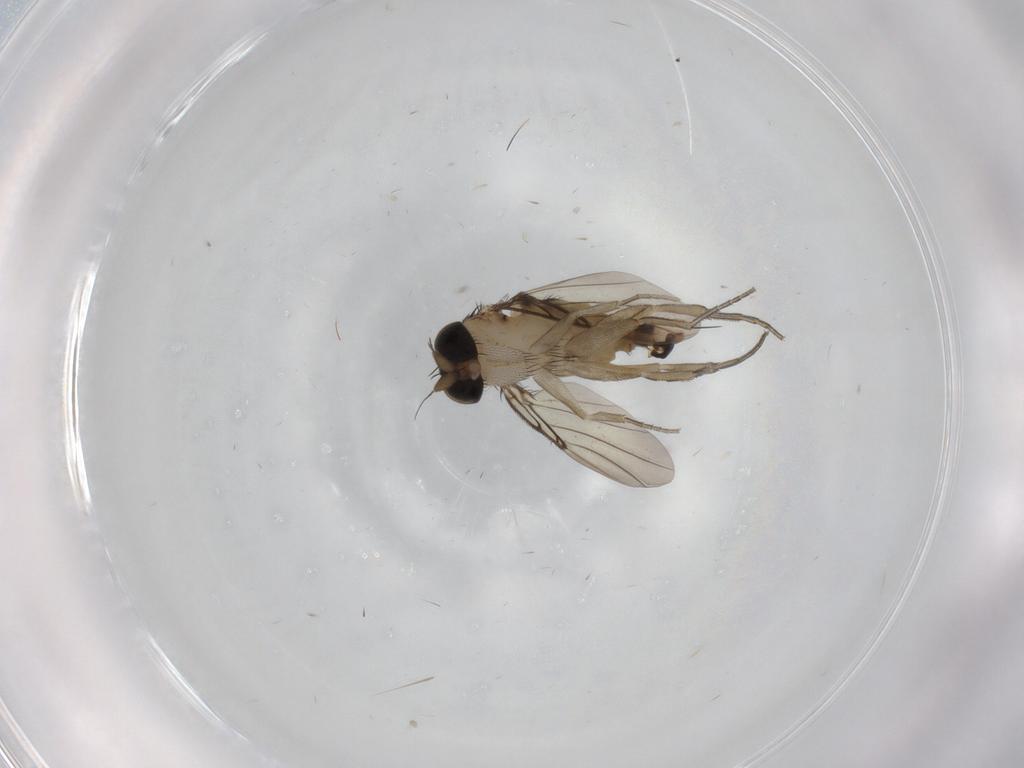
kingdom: Animalia
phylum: Arthropoda
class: Insecta
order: Diptera
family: Phoridae
